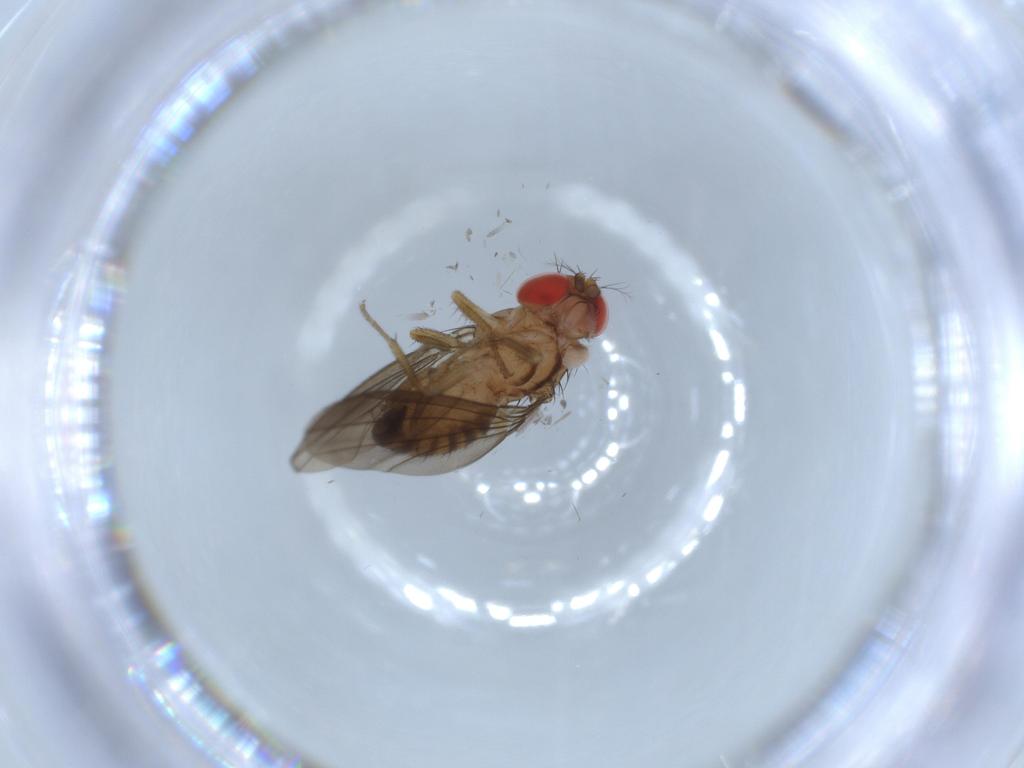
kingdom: Animalia
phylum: Arthropoda
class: Insecta
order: Diptera
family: Drosophilidae
